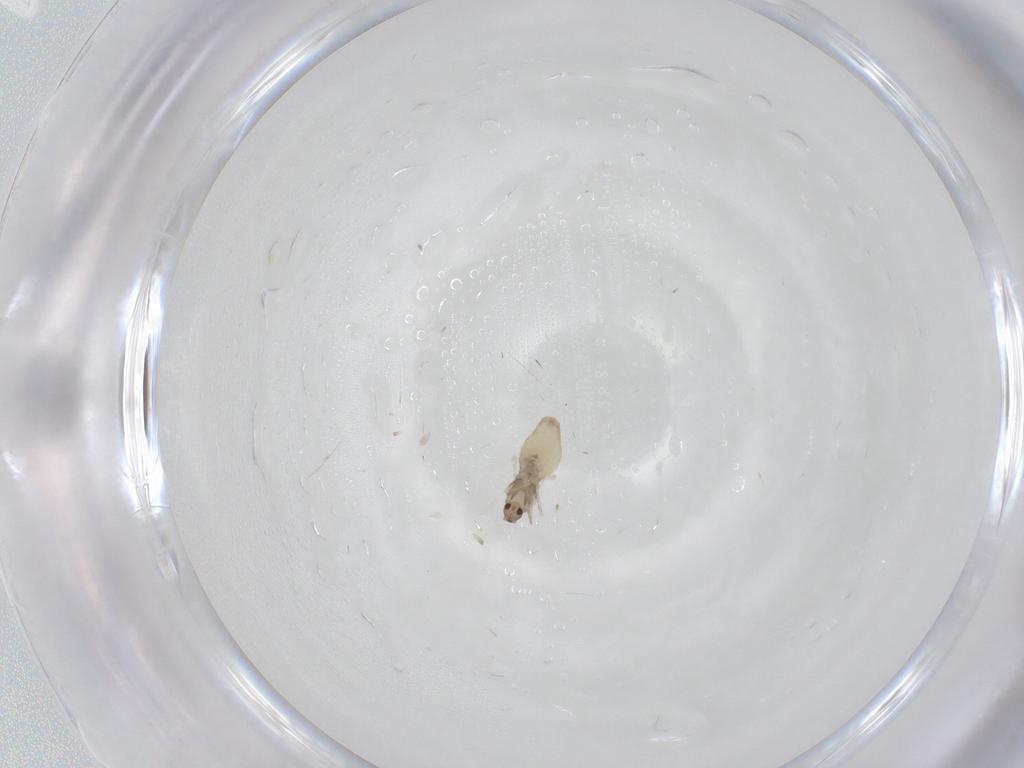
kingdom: Animalia
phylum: Arthropoda
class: Insecta
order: Diptera
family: Cecidomyiidae
